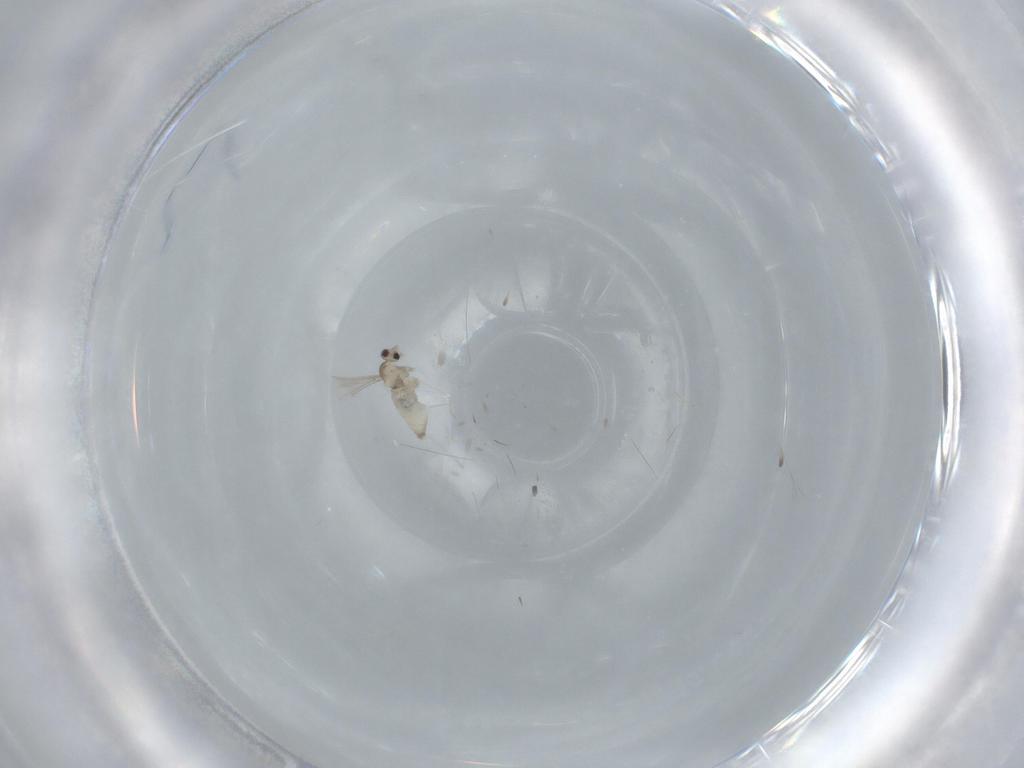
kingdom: Animalia
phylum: Arthropoda
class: Insecta
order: Diptera
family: Cecidomyiidae
